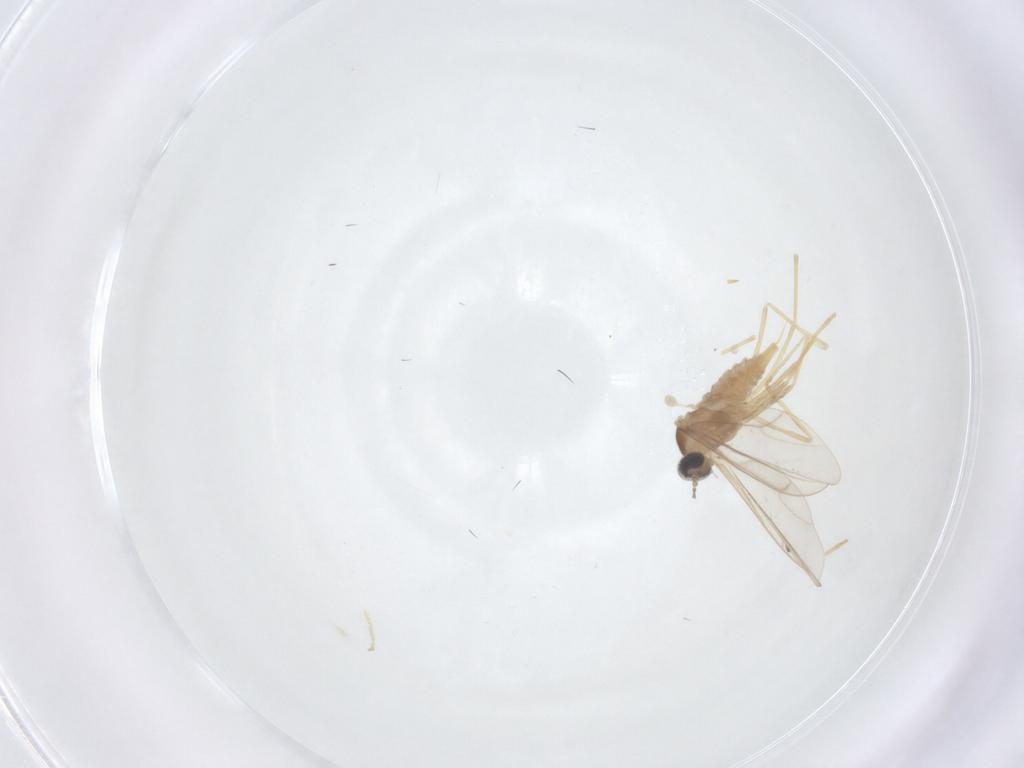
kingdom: Animalia
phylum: Arthropoda
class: Insecta
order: Diptera
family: Cecidomyiidae
